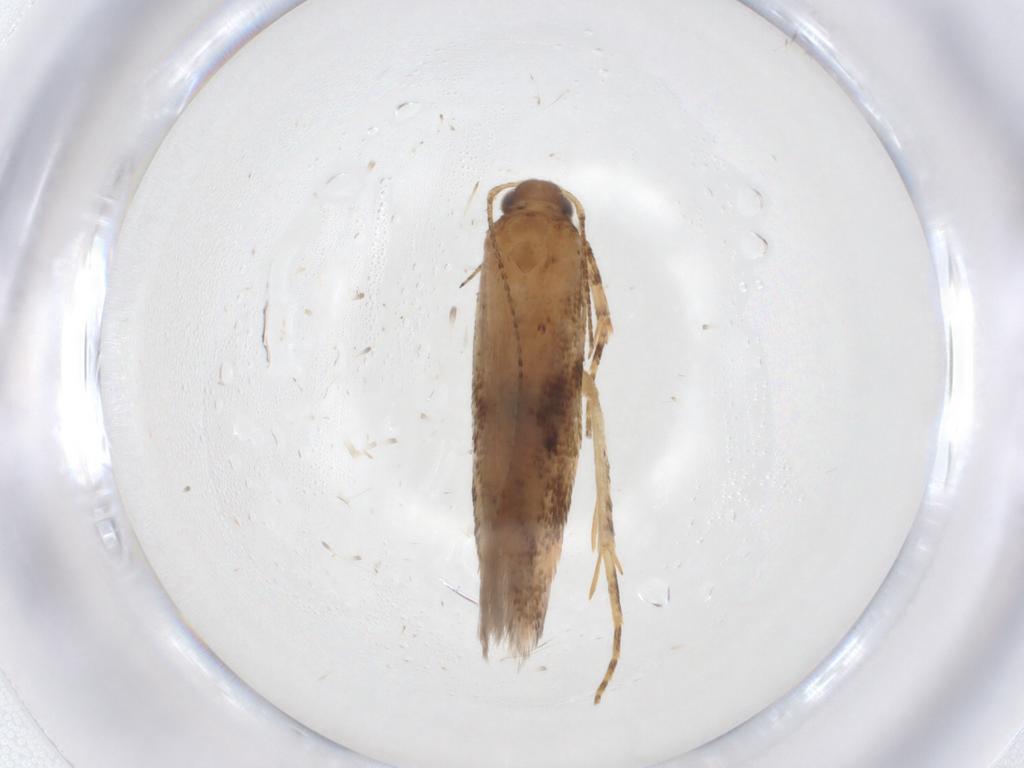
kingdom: Animalia
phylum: Arthropoda
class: Insecta
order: Lepidoptera
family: Gelechiidae
